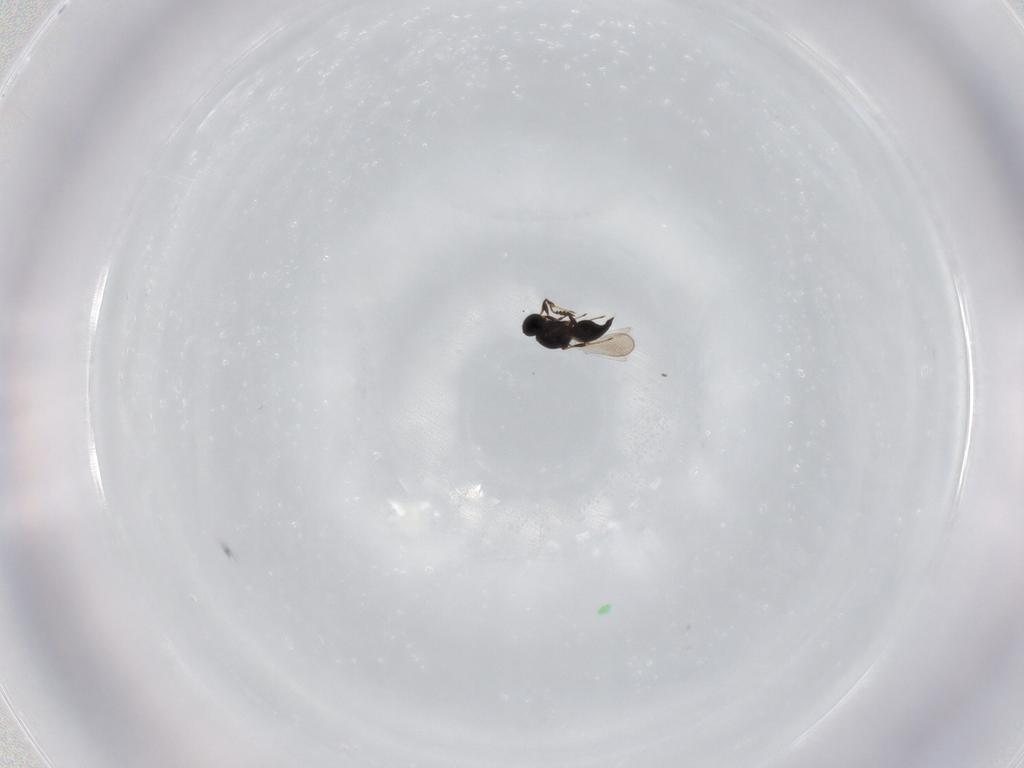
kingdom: Animalia
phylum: Arthropoda
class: Insecta
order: Hymenoptera
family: Platygastridae
